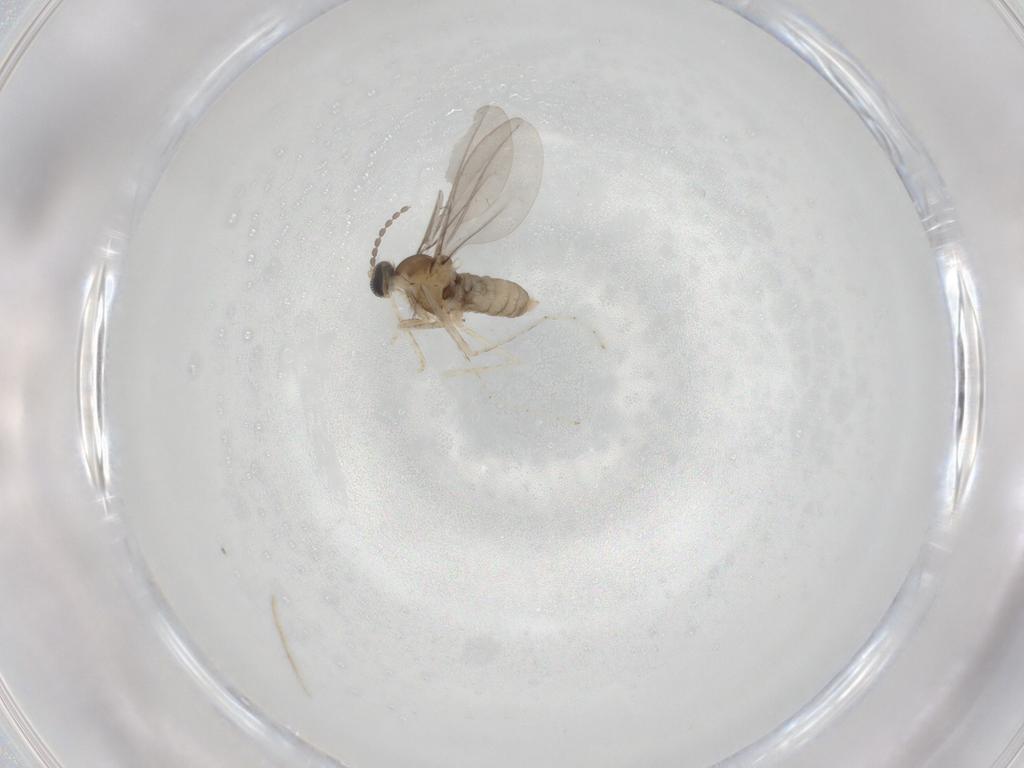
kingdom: Animalia
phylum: Arthropoda
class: Insecta
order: Diptera
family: Cecidomyiidae
